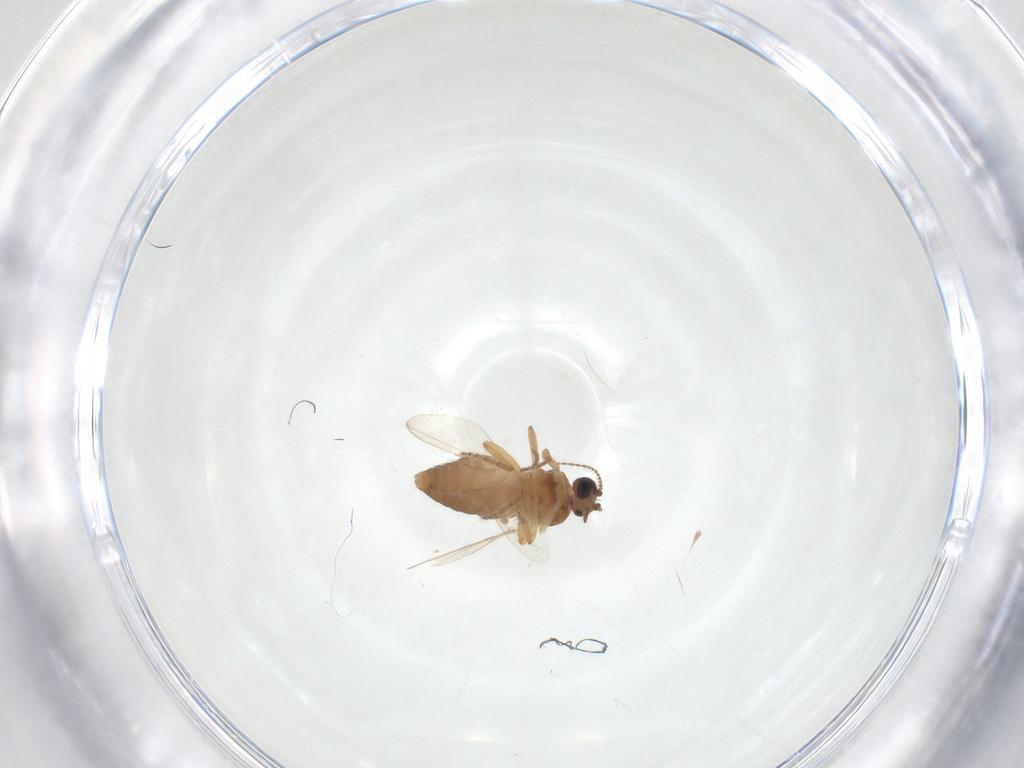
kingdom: Animalia
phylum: Arthropoda
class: Insecta
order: Diptera
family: Ceratopogonidae
